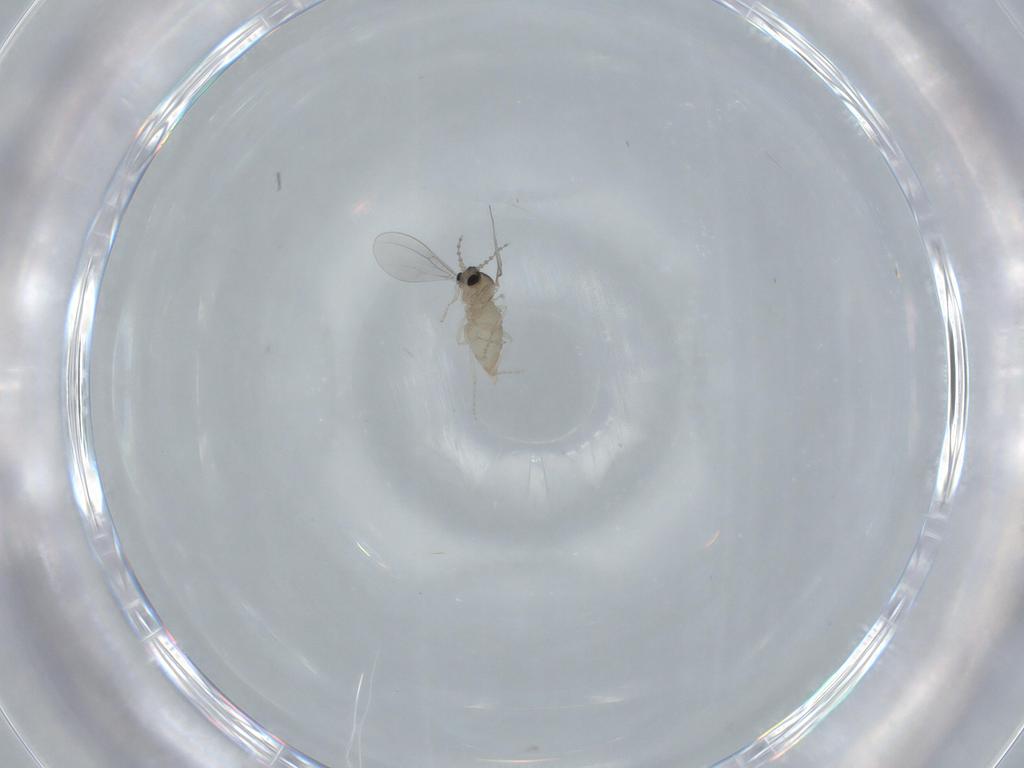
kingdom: Animalia
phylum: Arthropoda
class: Insecta
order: Diptera
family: Cecidomyiidae
